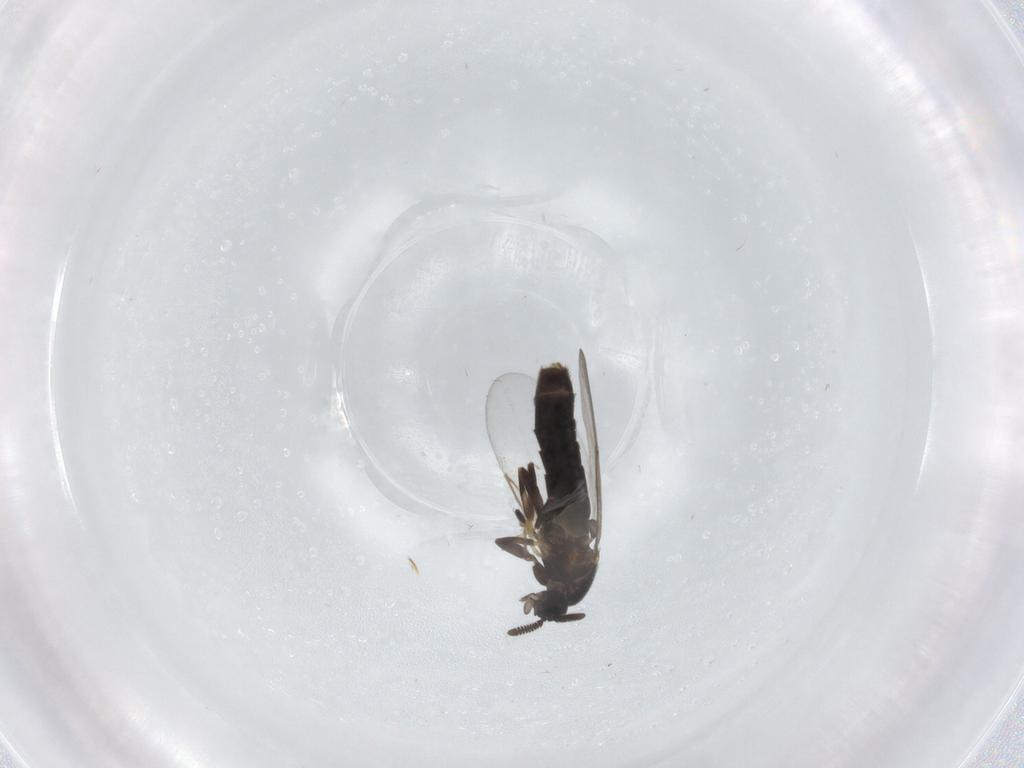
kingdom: Animalia
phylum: Arthropoda
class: Insecta
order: Diptera
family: Scatopsidae
